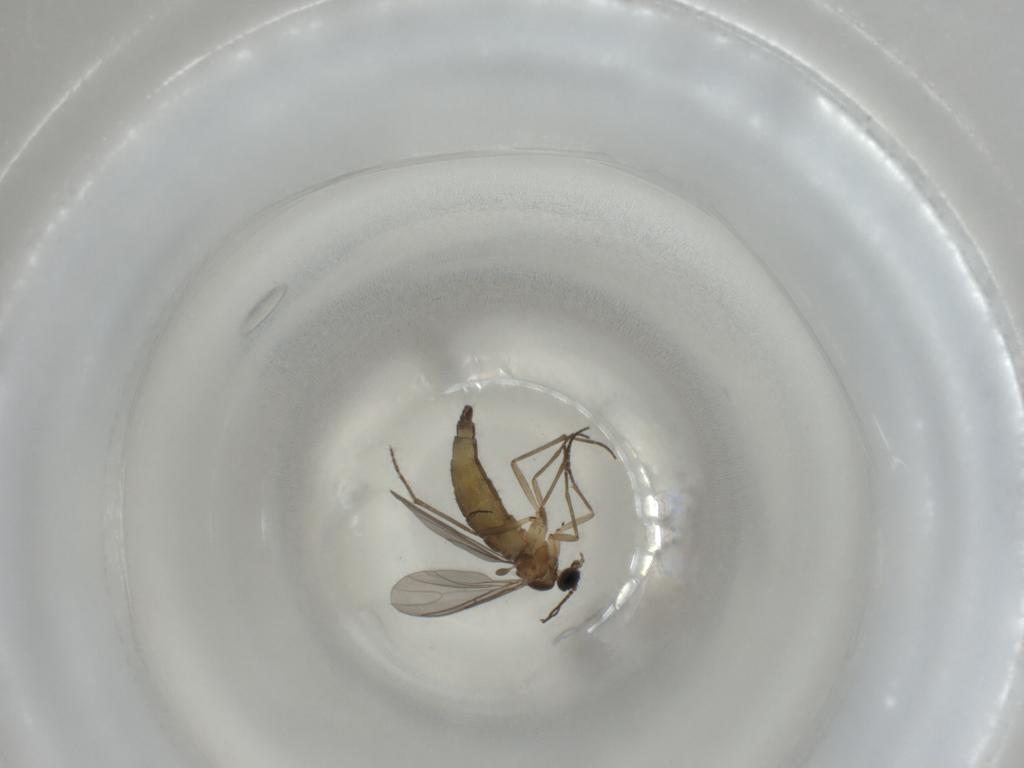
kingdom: Animalia
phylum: Arthropoda
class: Insecta
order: Diptera
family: Sciaridae
